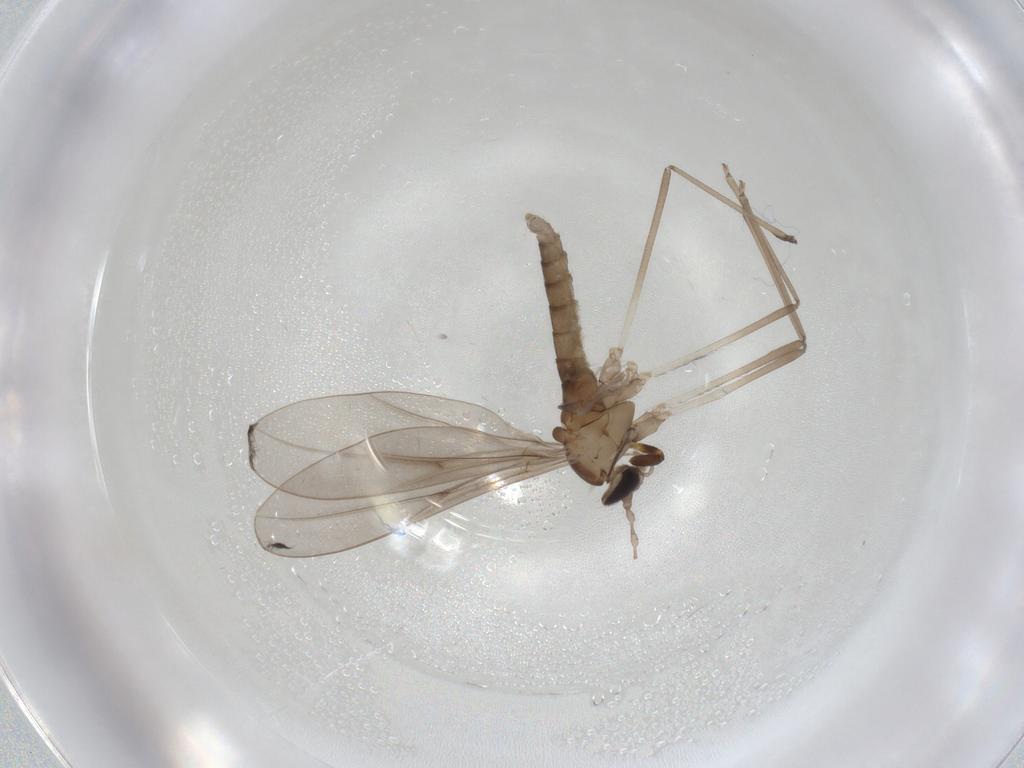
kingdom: Animalia
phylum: Arthropoda
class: Insecta
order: Diptera
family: Cecidomyiidae
